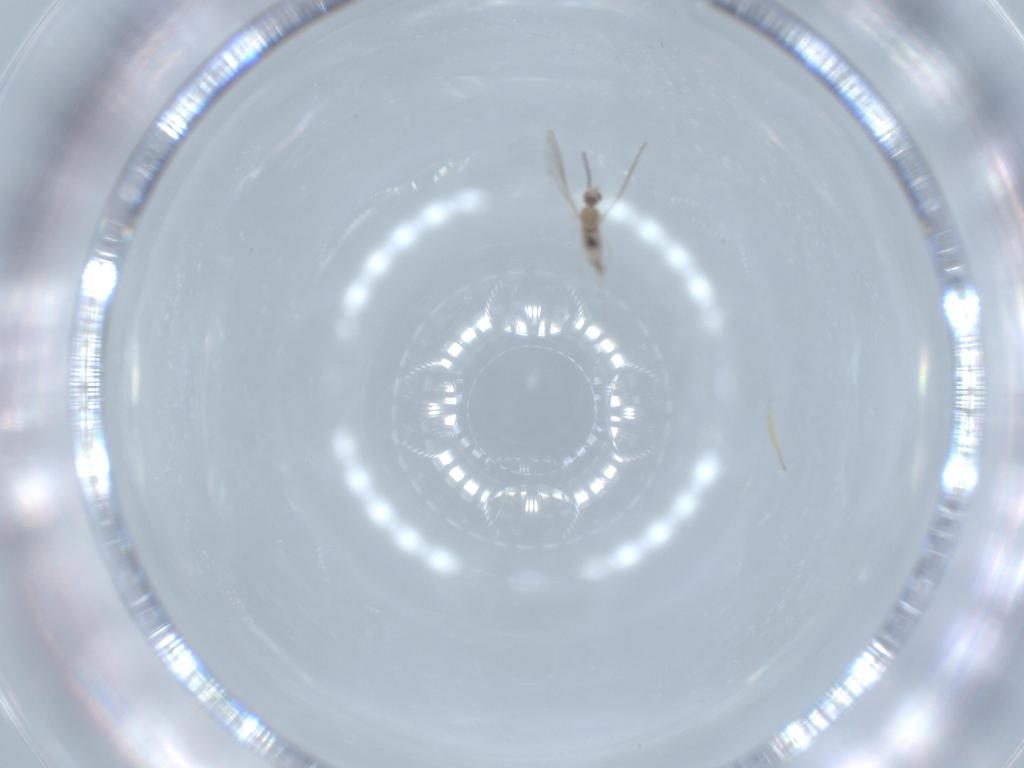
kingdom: Animalia
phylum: Arthropoda
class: Insecta
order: Diptera
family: Cecidomyiidae
